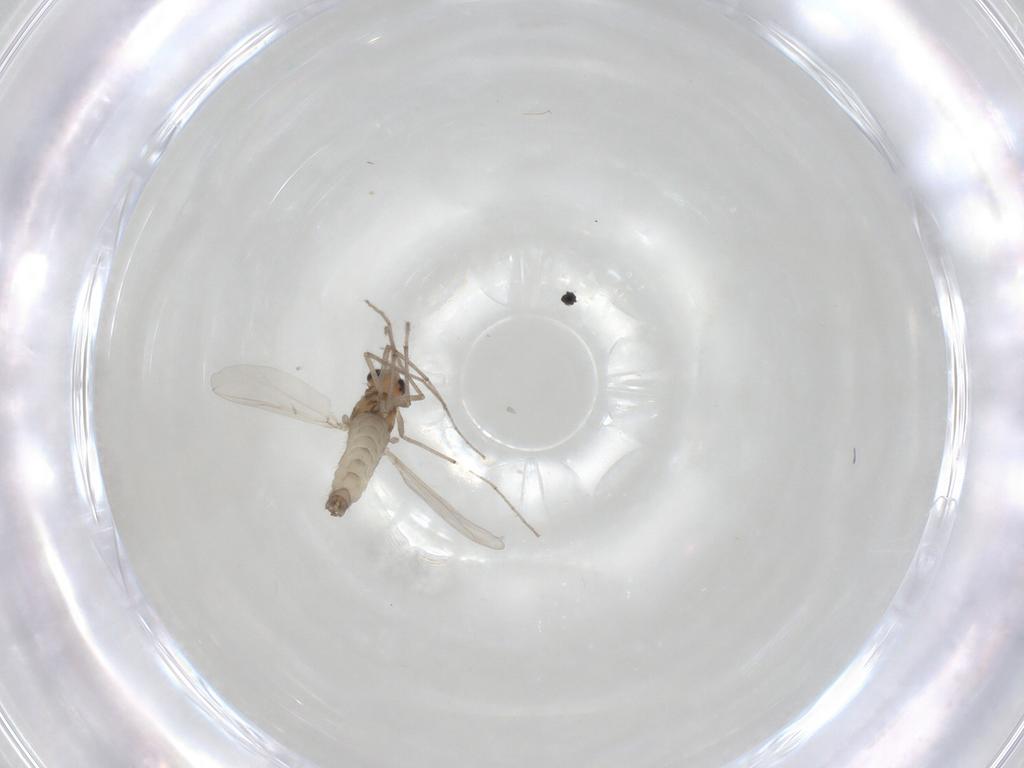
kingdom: Animalia
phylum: Arthropoda
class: Insecta
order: Diptera
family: Chironomidae
